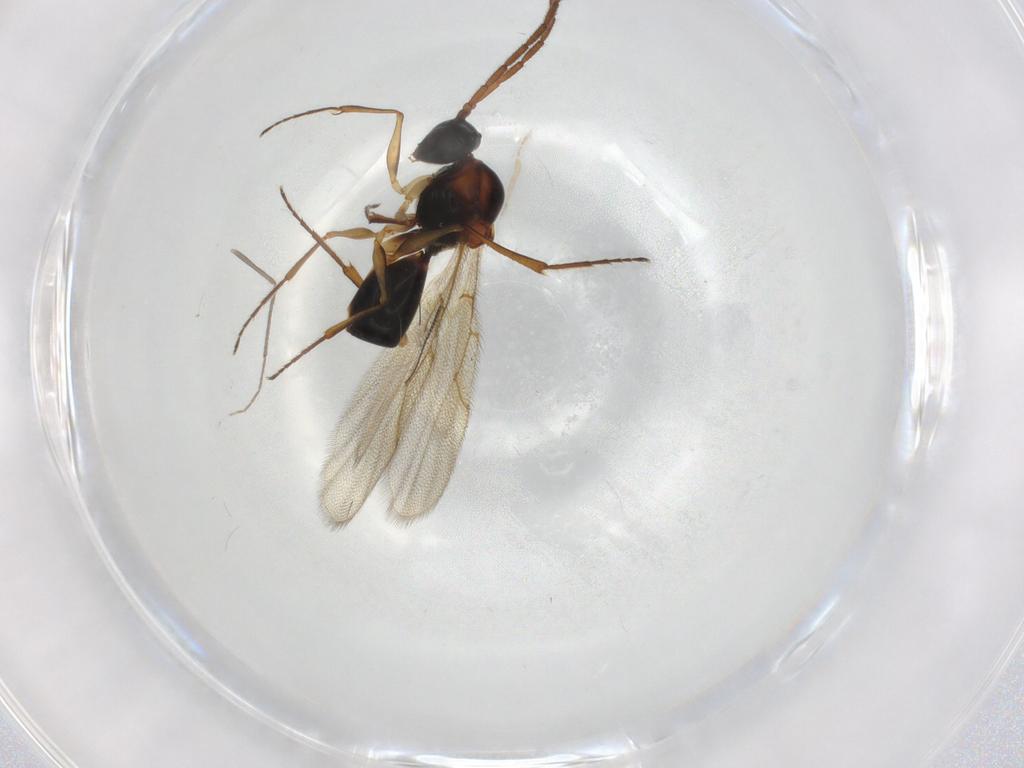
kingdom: Animalia
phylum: Arthropoda
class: Insecta
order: Hymenoptera
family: Figitidae
